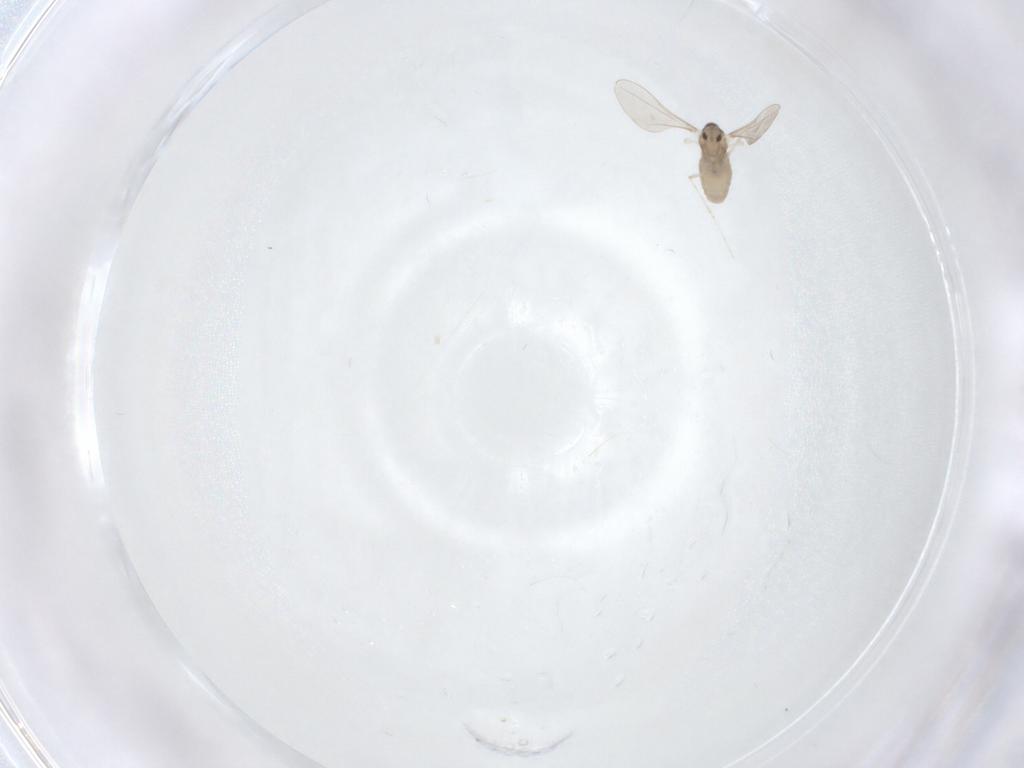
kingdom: Animalia
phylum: Arthropoda
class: Insecta
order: Diptera
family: Cecidomyiidae
